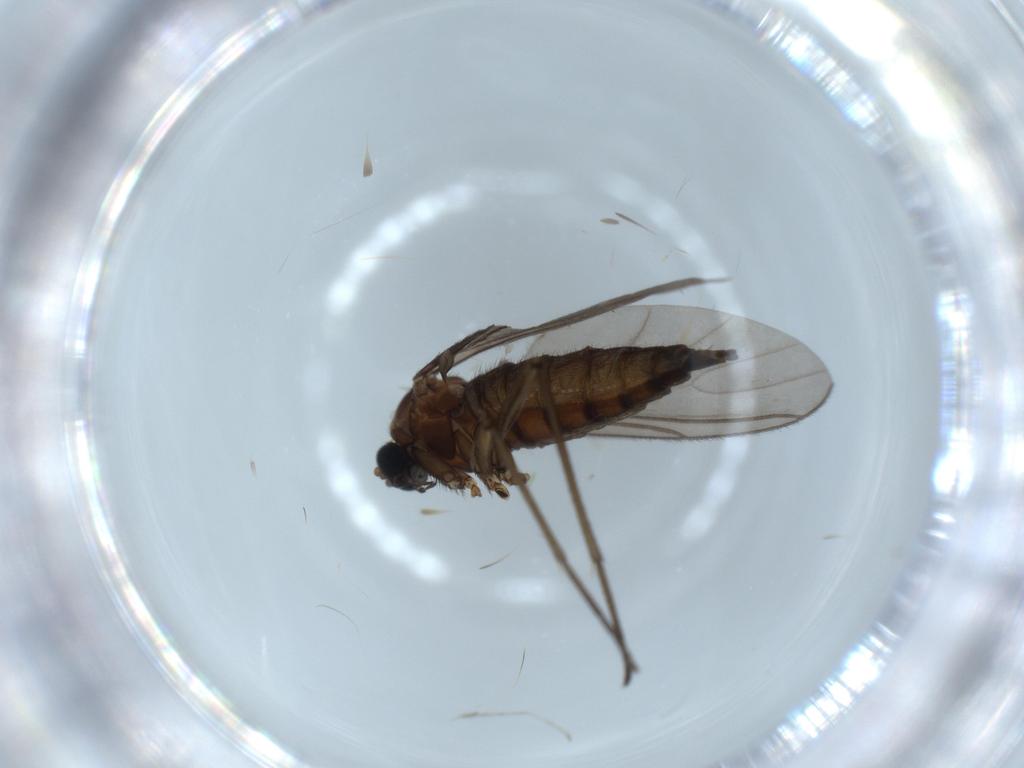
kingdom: Animalia
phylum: Arthropoda
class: Insecta
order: Diptera
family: Sciaridae
